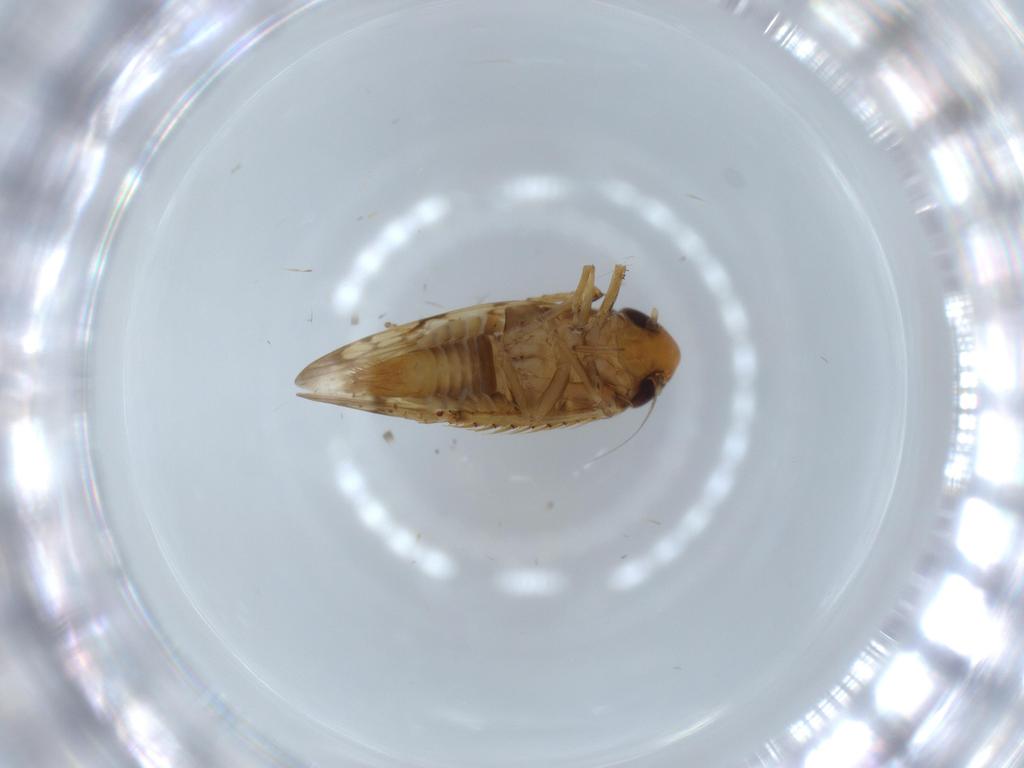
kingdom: Animalia
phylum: Arthropoda
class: Insecta
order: Hemiptera
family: Cicadellidae
